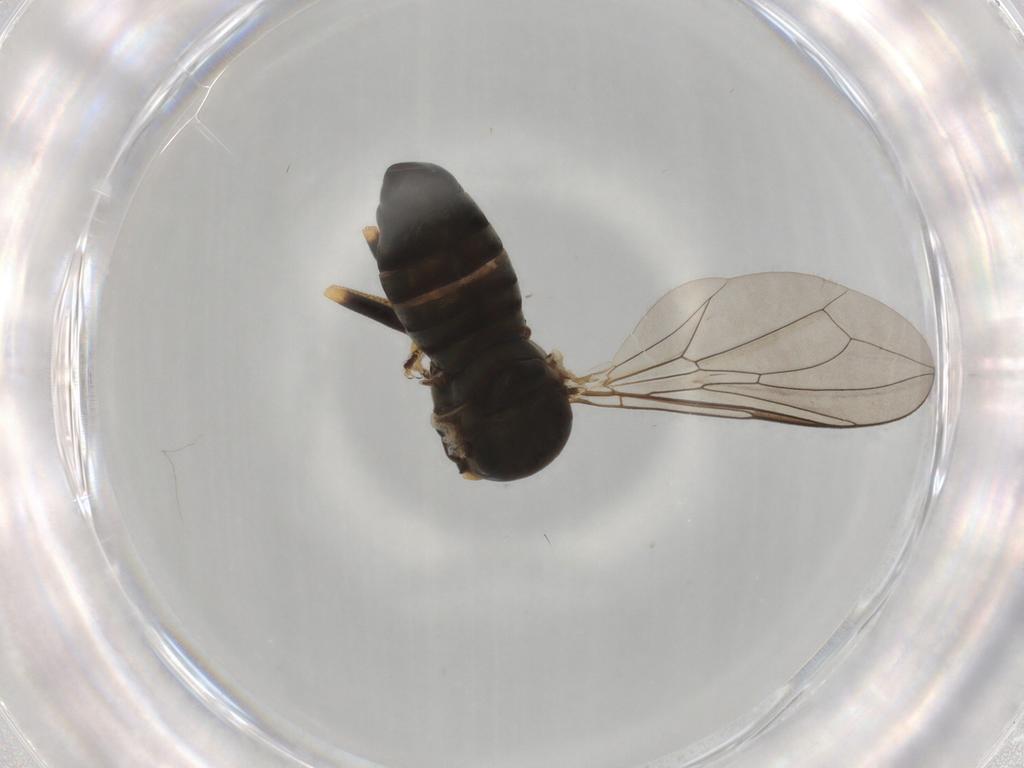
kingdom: Animalia
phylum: Arthropoda
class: Insecta
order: Diptera
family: Pipunculidae
